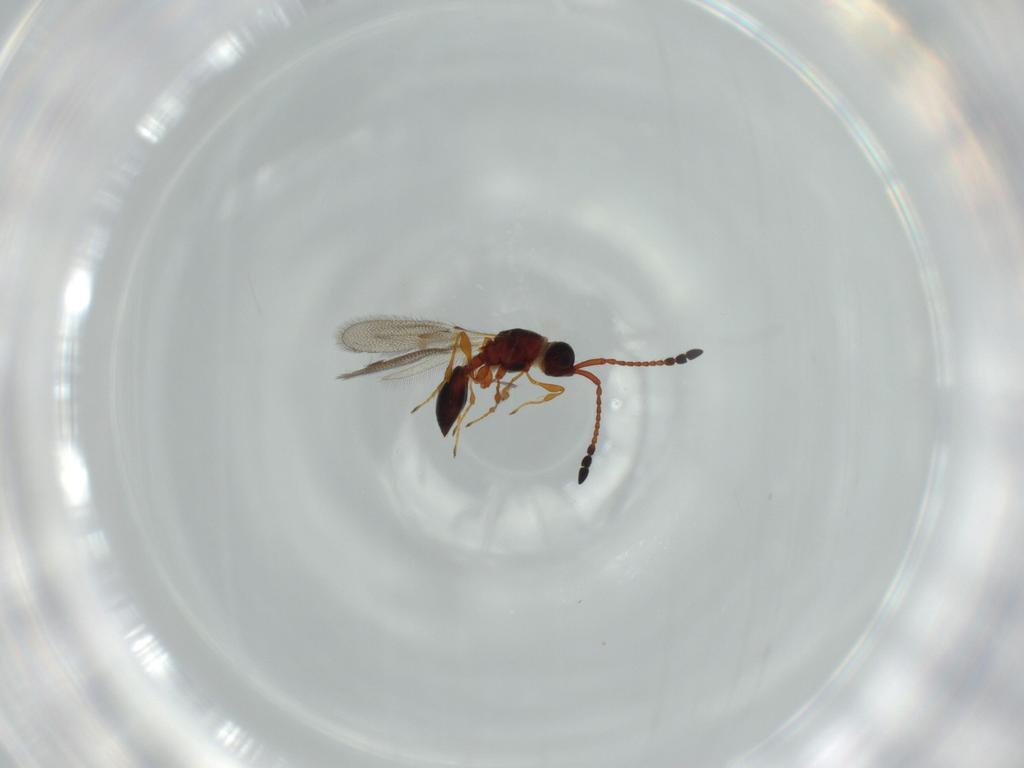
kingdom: Animalia
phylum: Arthropoda
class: Insecta
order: Hymenoptera
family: Diapriidae
